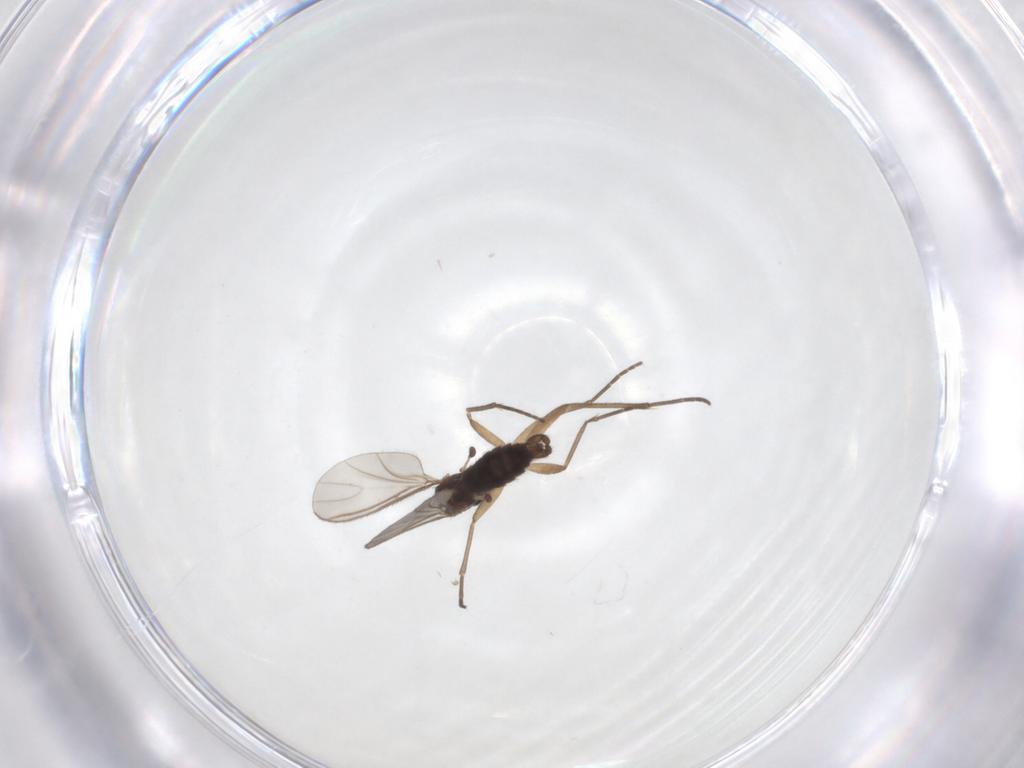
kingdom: Animalia
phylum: Arthropoda
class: Insecta
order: Diptera
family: Sciaridae
